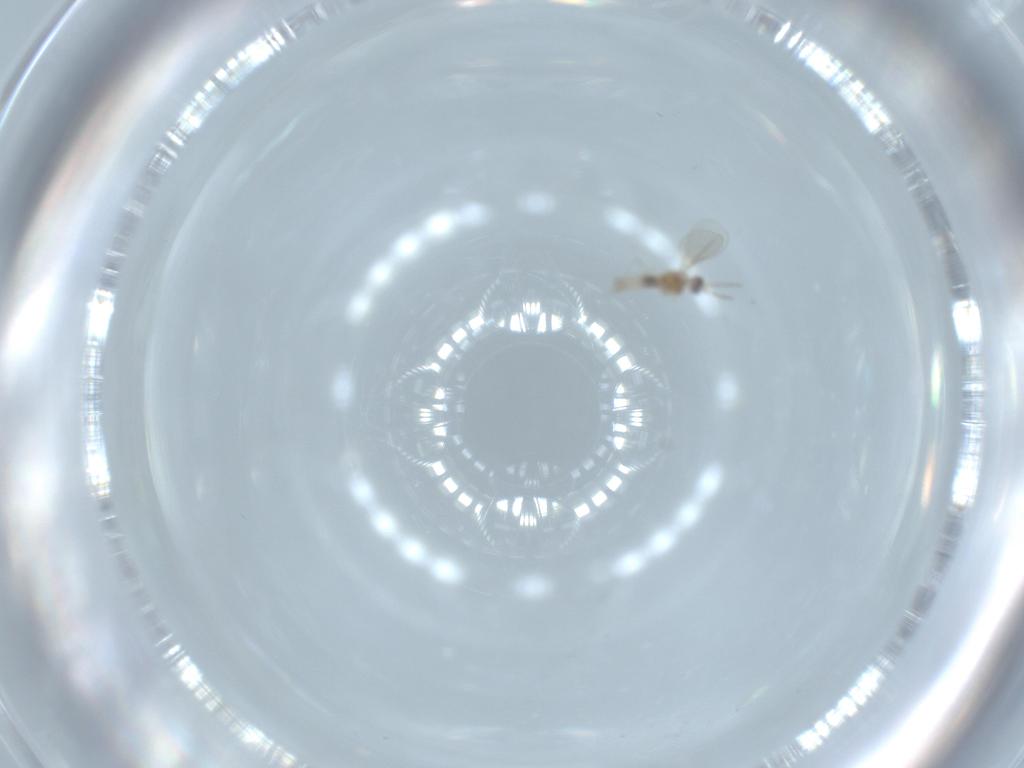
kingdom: Animalia
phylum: Arthropoda
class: Insecta
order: Diptera
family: Cecidomyiidae
